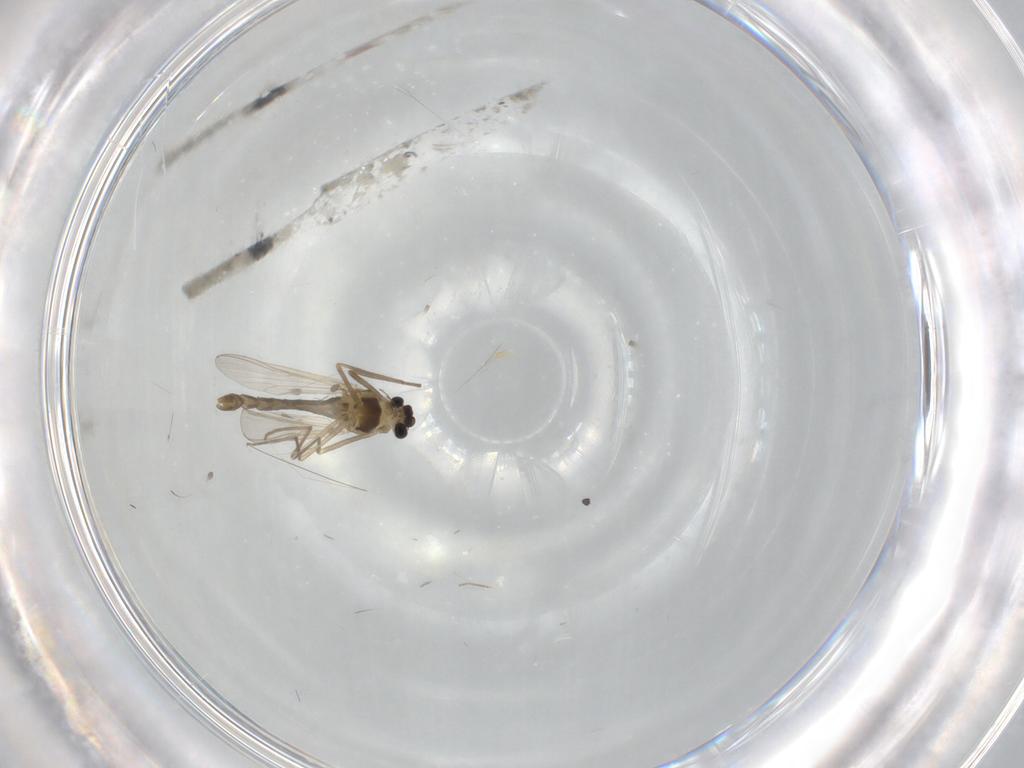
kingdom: Animalia
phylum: Arthropoda
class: Insecta
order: Diptera
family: Chironomidae
